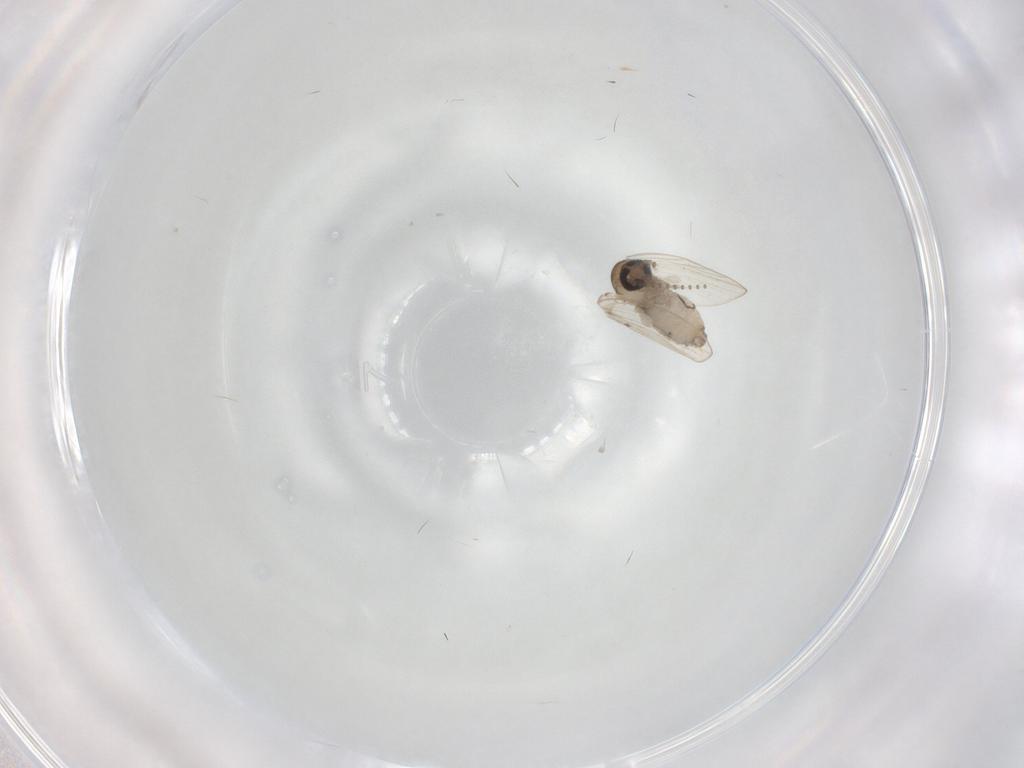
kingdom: Animalia
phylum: Arthropoda
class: Insecta
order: Diptera
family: Psychodidae
